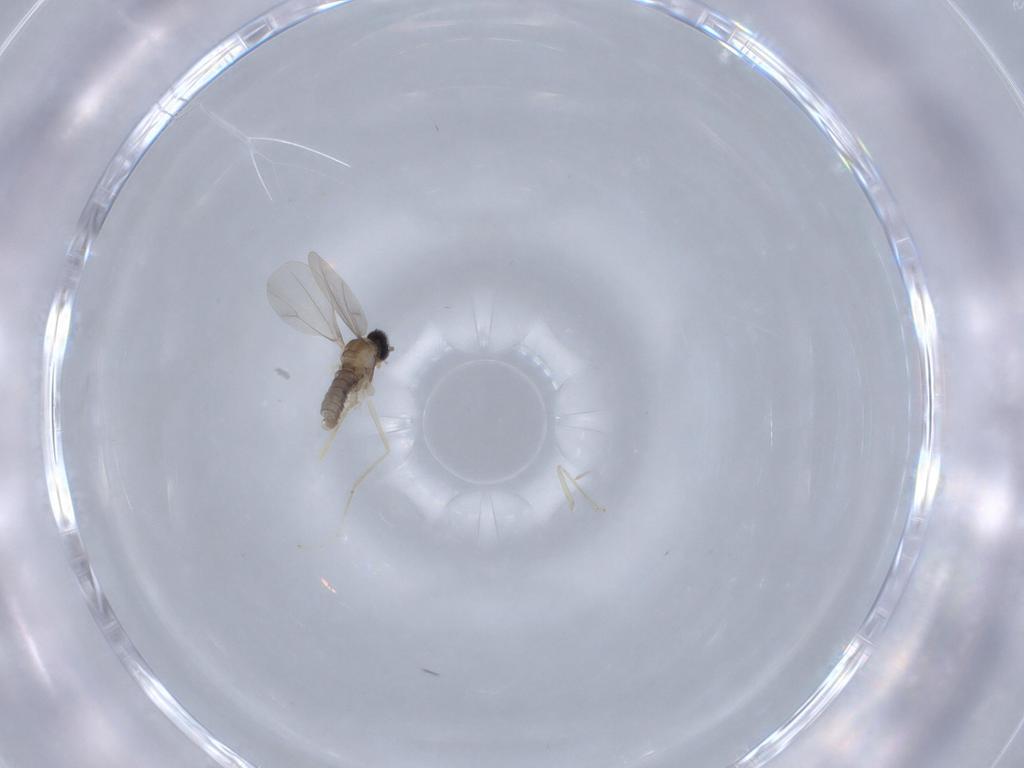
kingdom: Animalia
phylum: Arthropoda
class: Insecta
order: Diptera
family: Cecidomyiidae
